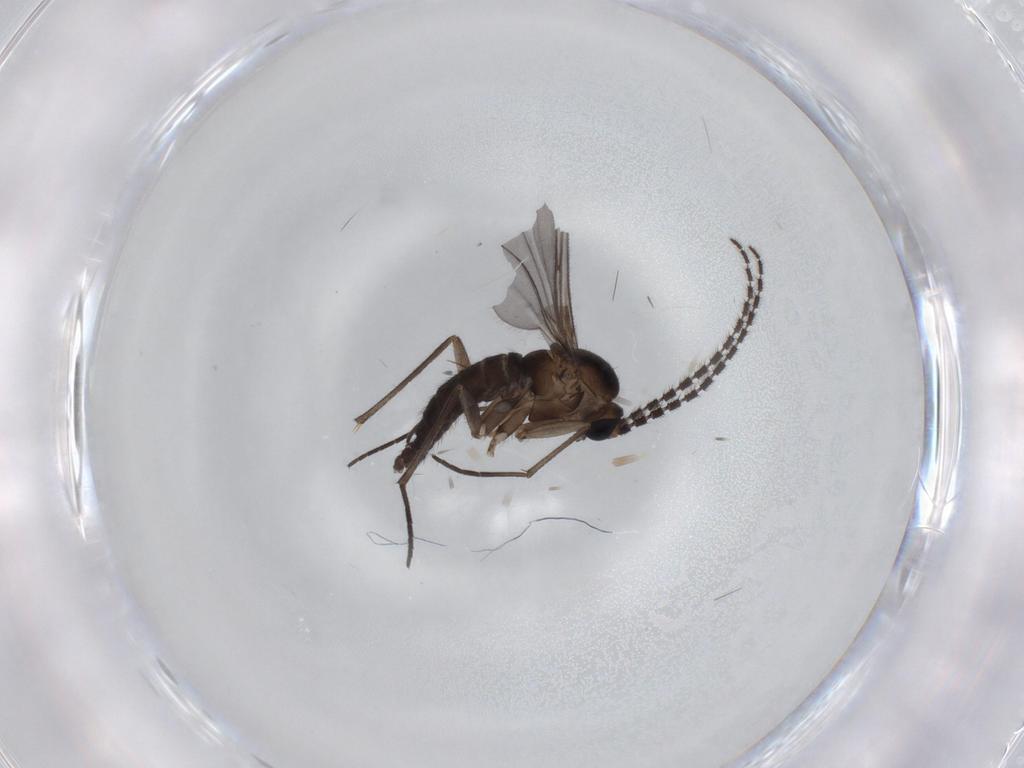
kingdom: Animalia
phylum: Arthropoda
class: Insecta
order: Diptera
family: Sciaridae
